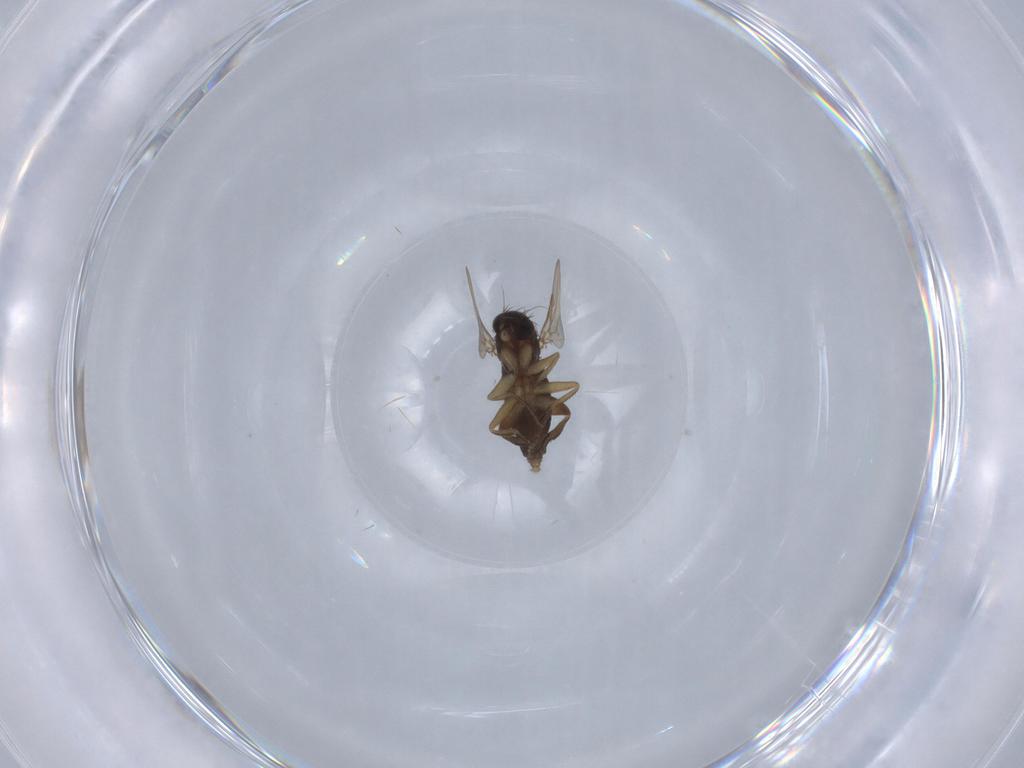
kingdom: Animalia
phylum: Arthropoda
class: Insecta
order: Diptera
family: Phoridae
